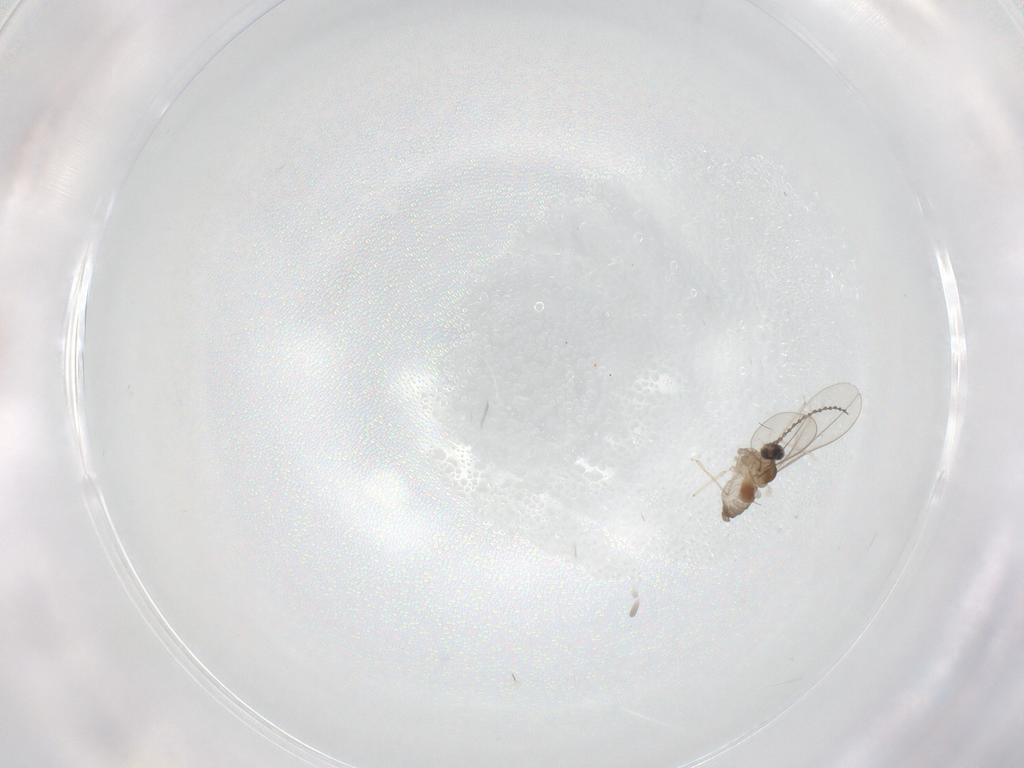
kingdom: Animalia
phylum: Arthropoda
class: Insecta
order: Diptera
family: Cecidomyiidae
